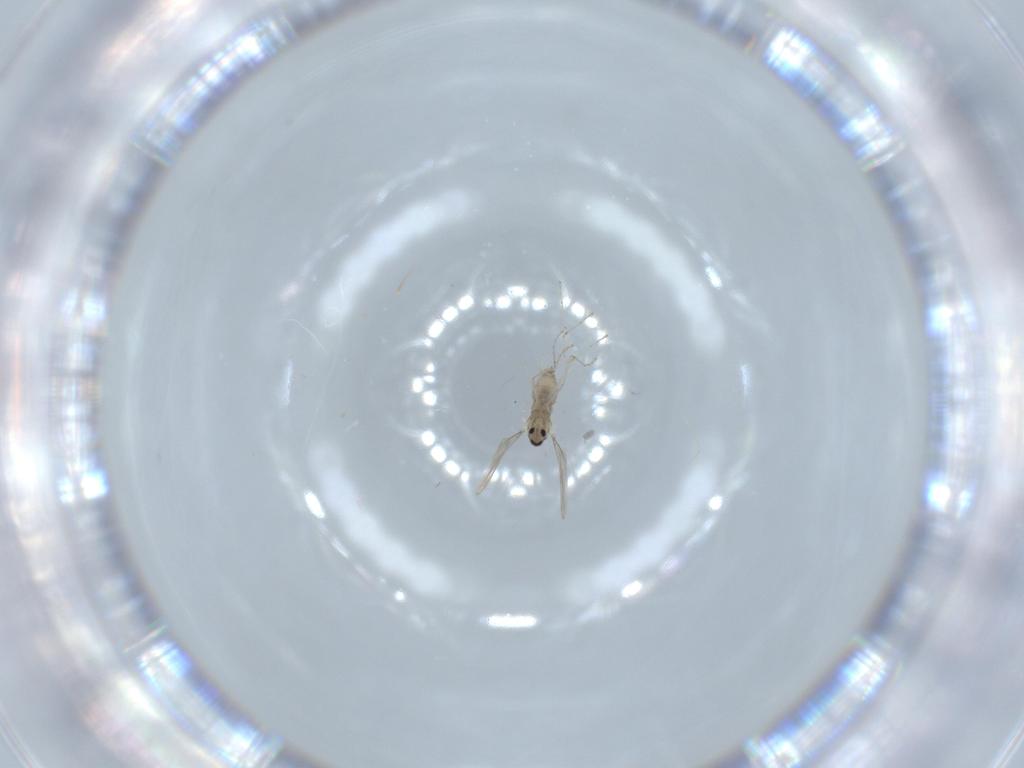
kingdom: Animalia
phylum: Arthropoda
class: Insecta
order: Diptera
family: Cecidomyiidae
